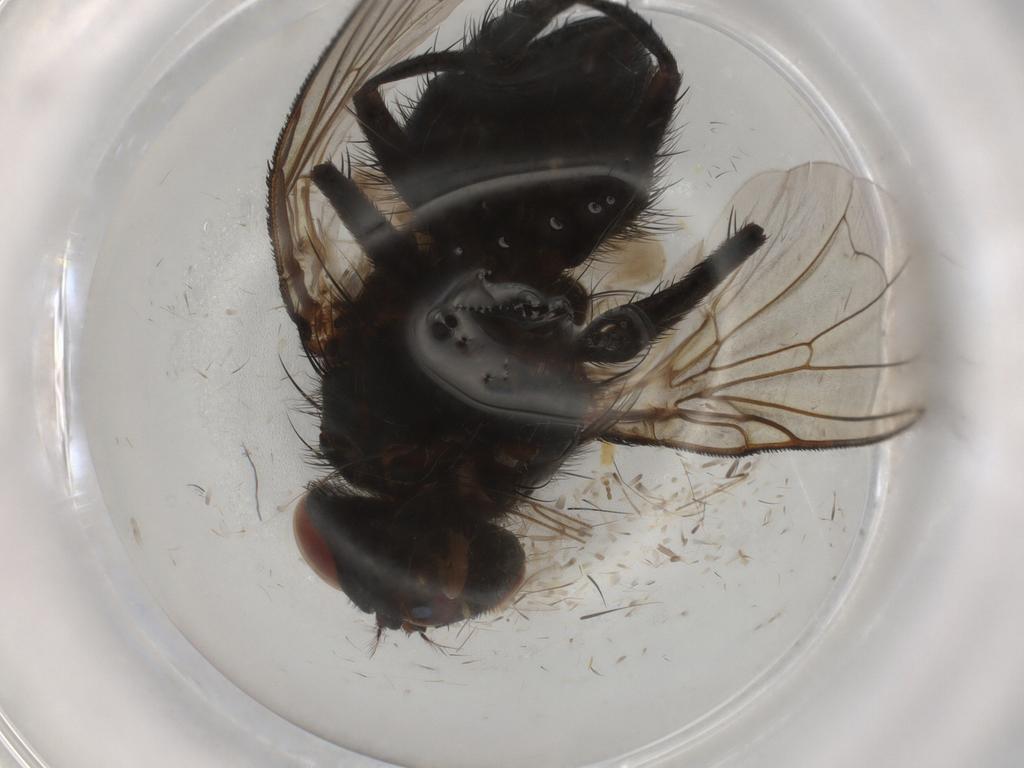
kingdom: Animalia
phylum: Arthropoda
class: Insecta
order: Diptera
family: Calliphoridae
